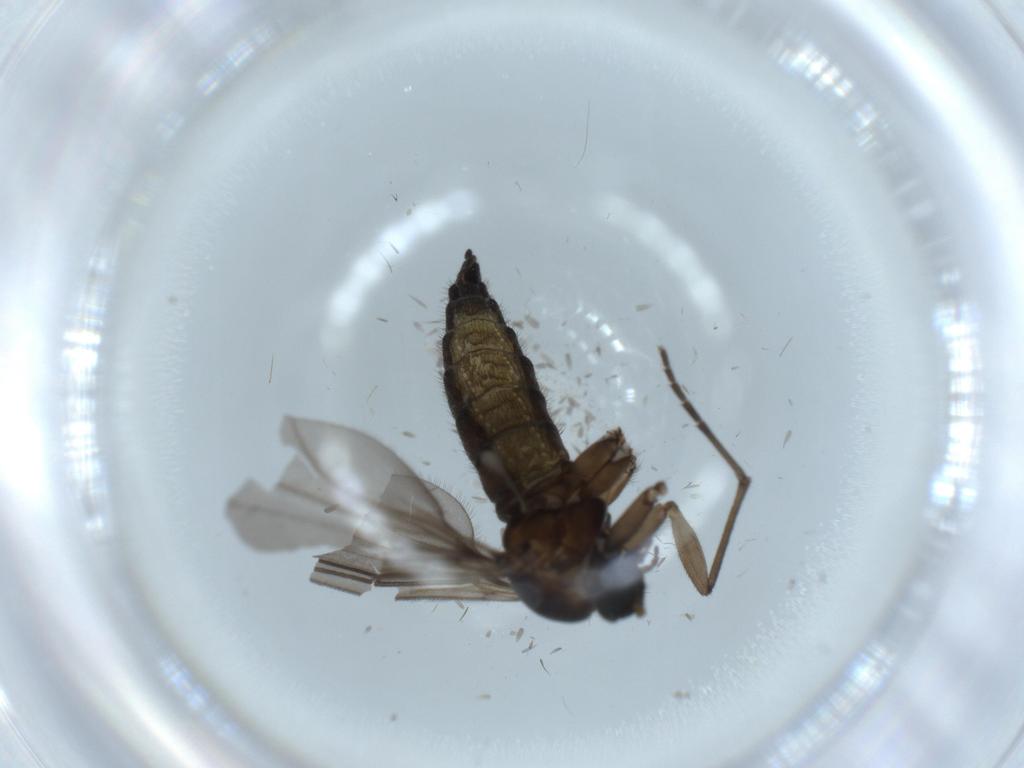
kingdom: Animalia
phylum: Arthropoda
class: Insecta
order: Diptera
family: Sciaridae
